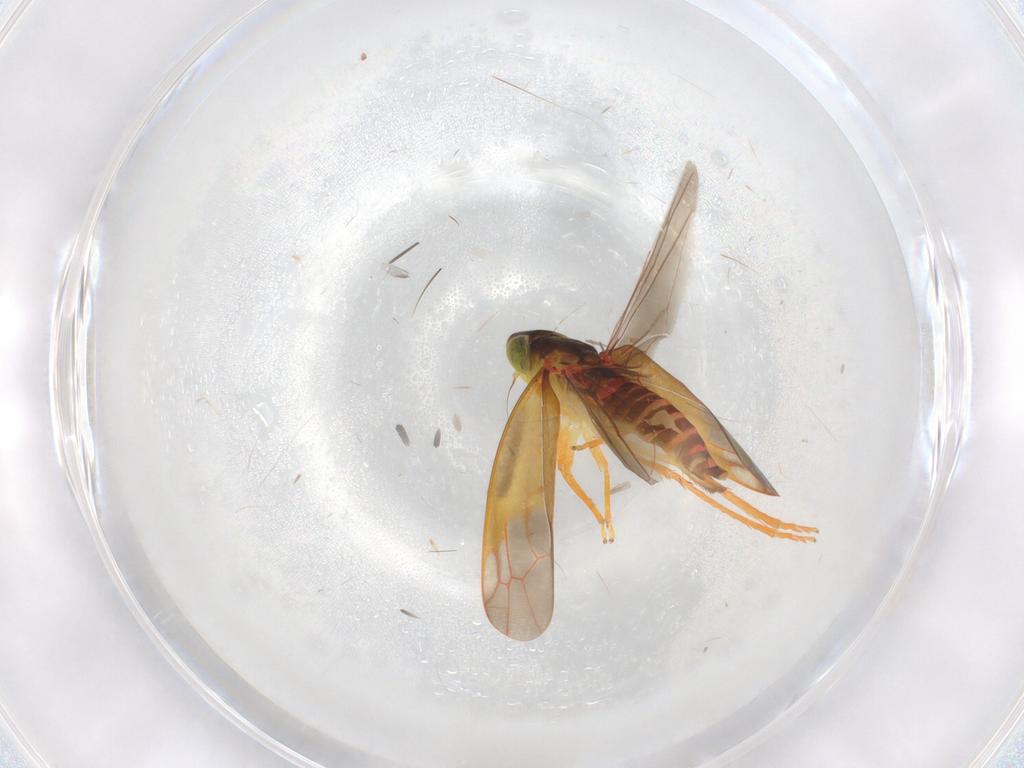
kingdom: Animalia
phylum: Arthropoda
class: Insecta
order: Hemiptera
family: Cicadellidae
